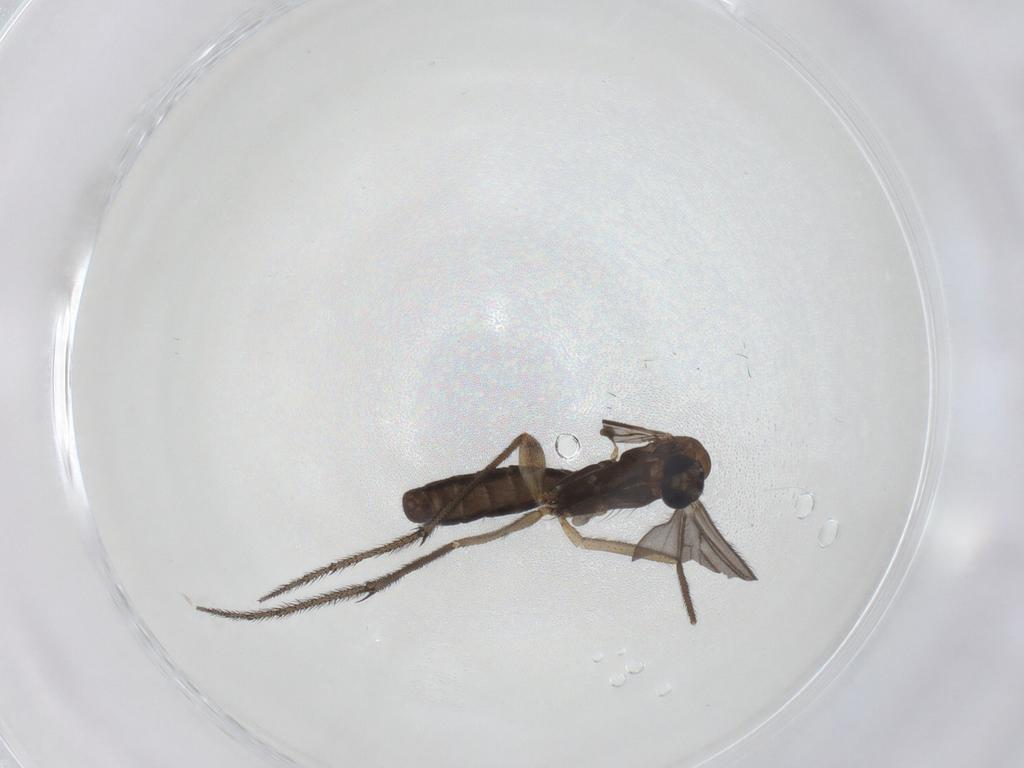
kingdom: Animalia
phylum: Arthropoda
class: Insecta
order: Diptera
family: Ditomyiidae
